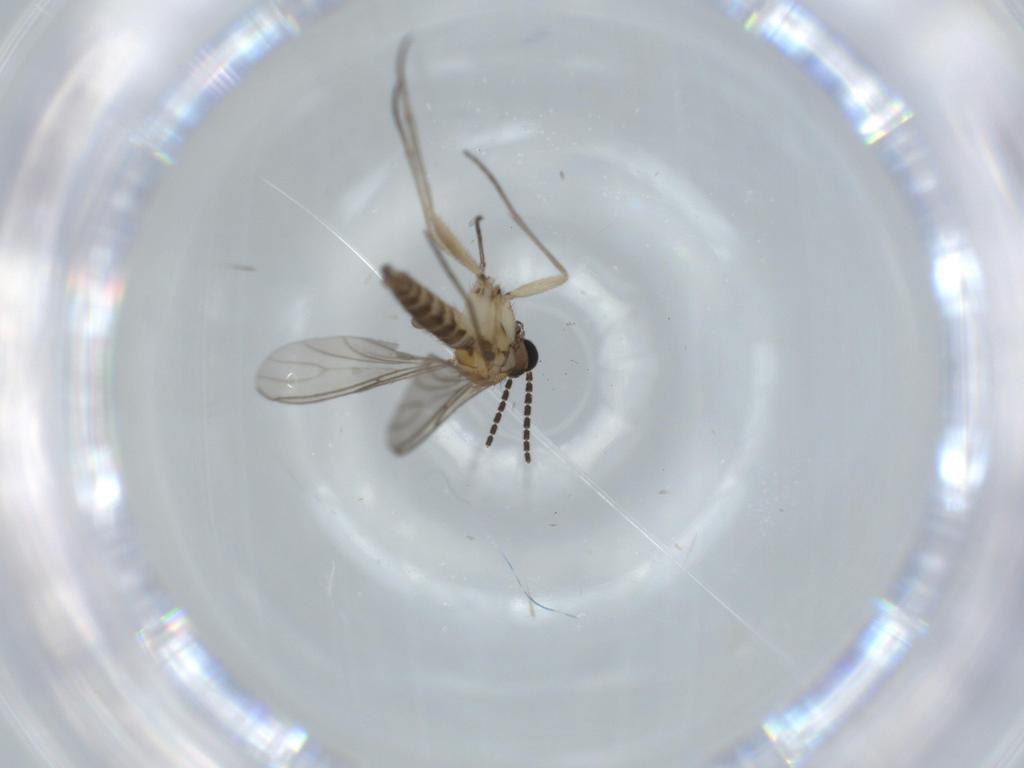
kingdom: Animalia
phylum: Arthropoda
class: Insecta
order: Diptera
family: Sciaridae
